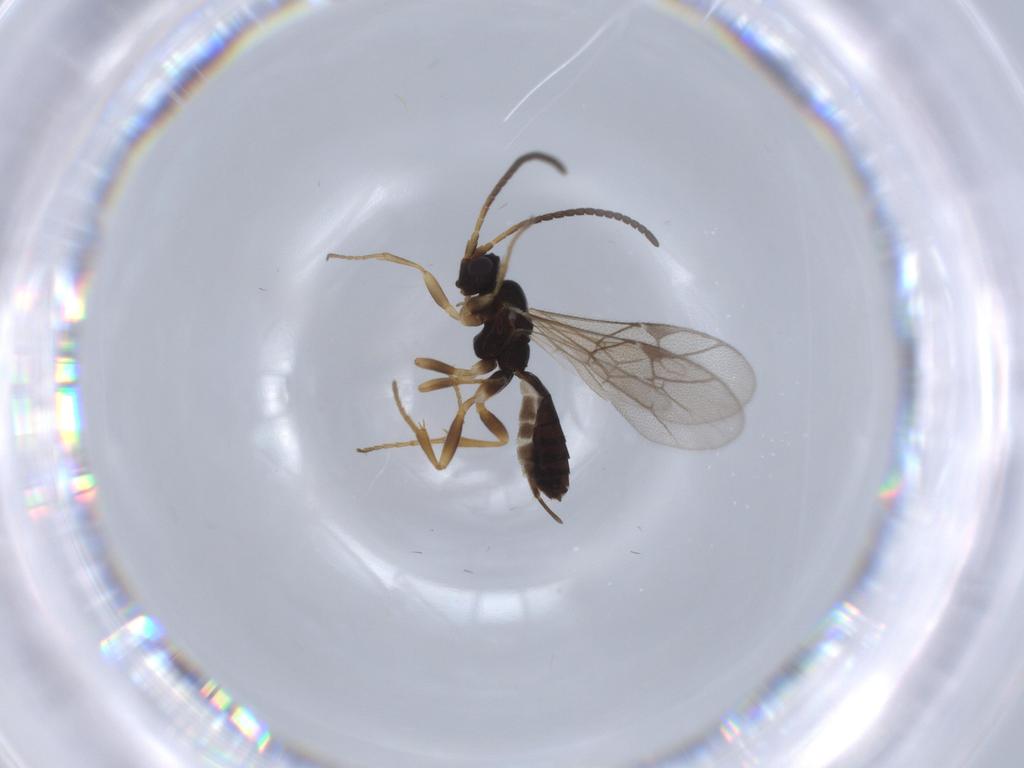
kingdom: Animalia
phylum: Arthropoda
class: Insecta
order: Hymenoptera
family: Ichneumonidae
